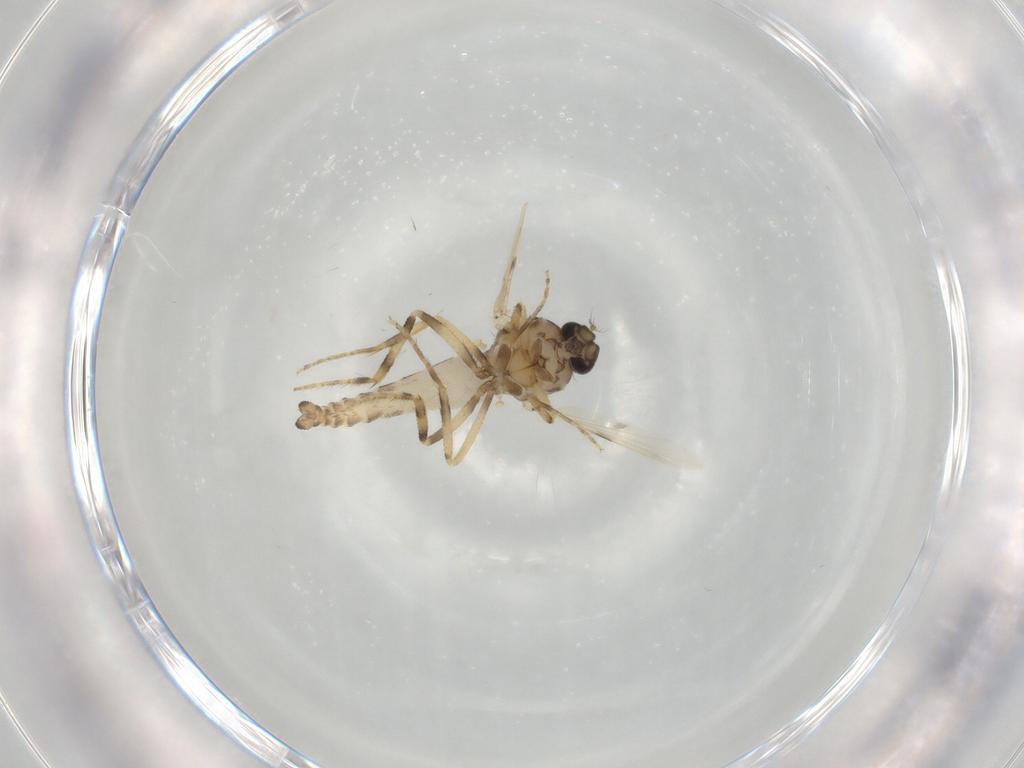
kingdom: Animalia
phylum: Arthropoda
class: Insecta
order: Diptera
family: Ceratopogonidae
